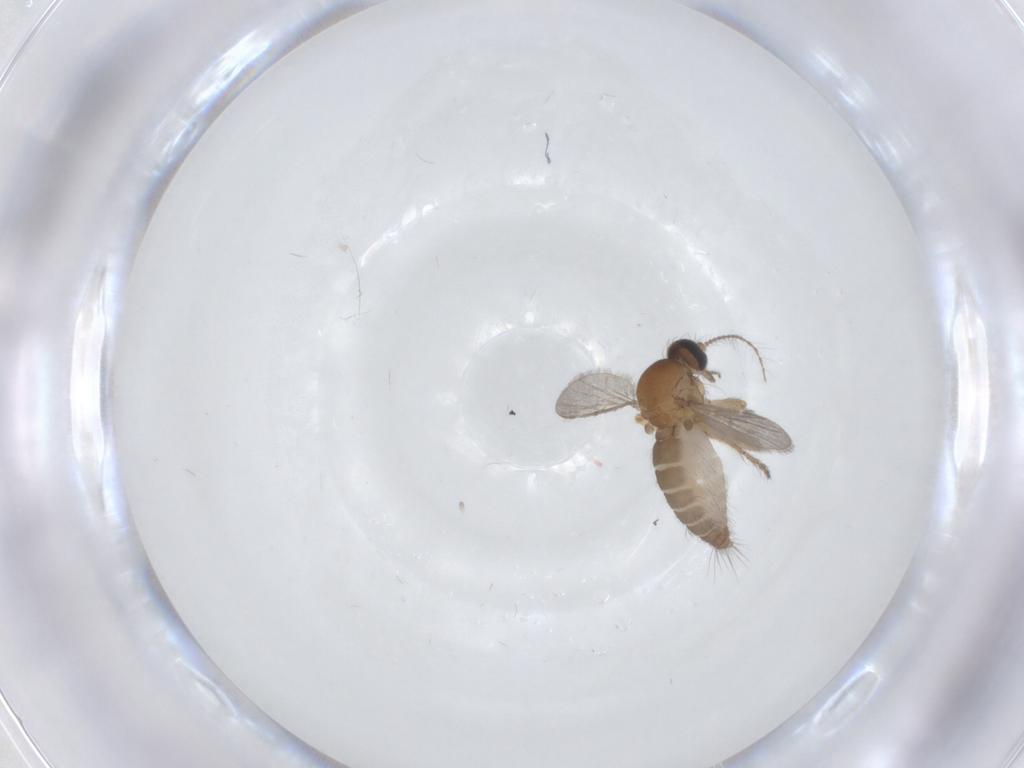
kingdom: Animalia
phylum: Arthropoda
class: Insecta
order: Diptera
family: Ceratopogonidae
